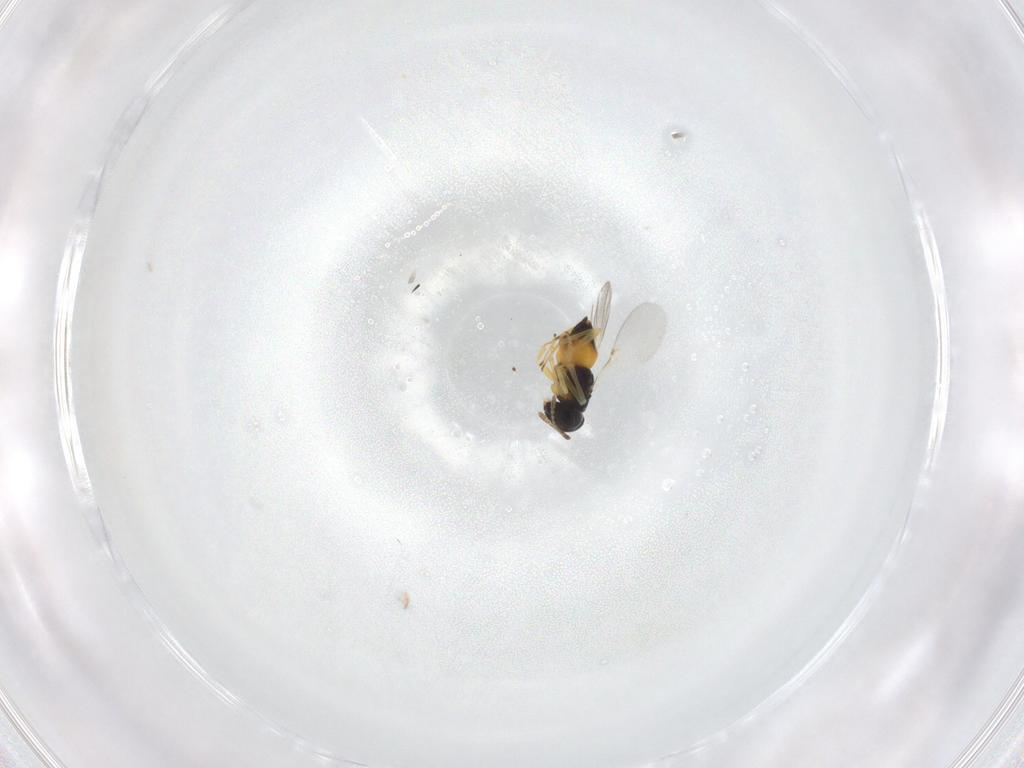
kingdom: Animalia
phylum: Arthropoda
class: Insecta
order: Hymenoptera
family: Encyrtidae
